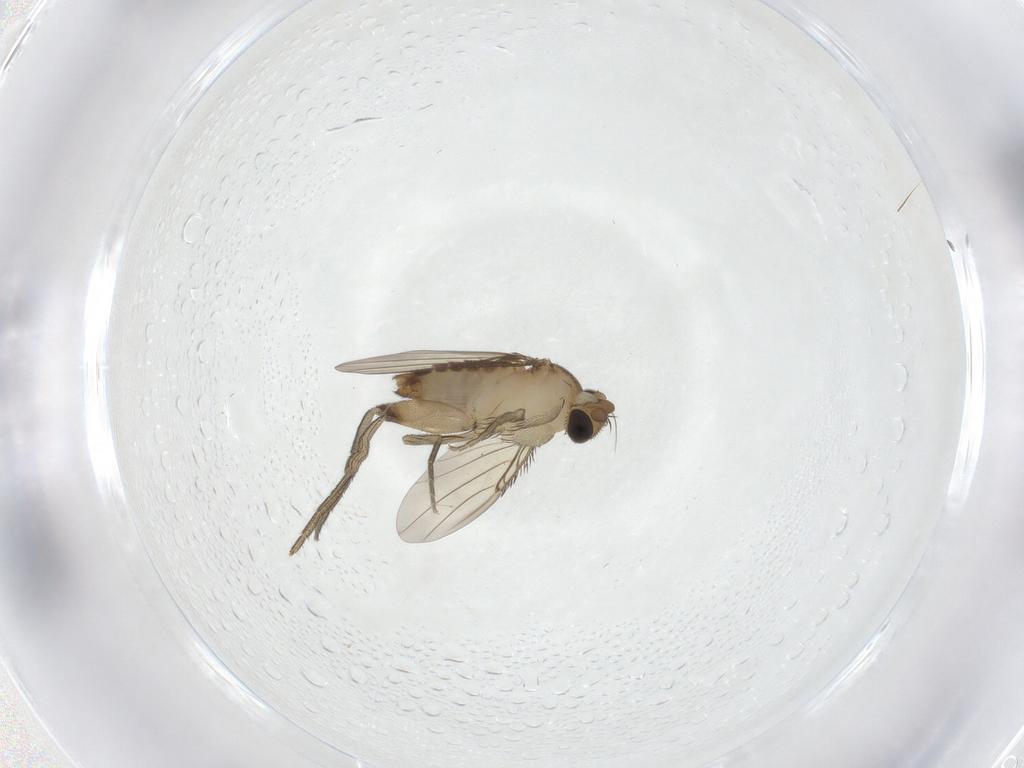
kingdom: Animalia
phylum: Arthropoda
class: Insecta
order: Diptera
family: Phoridae
